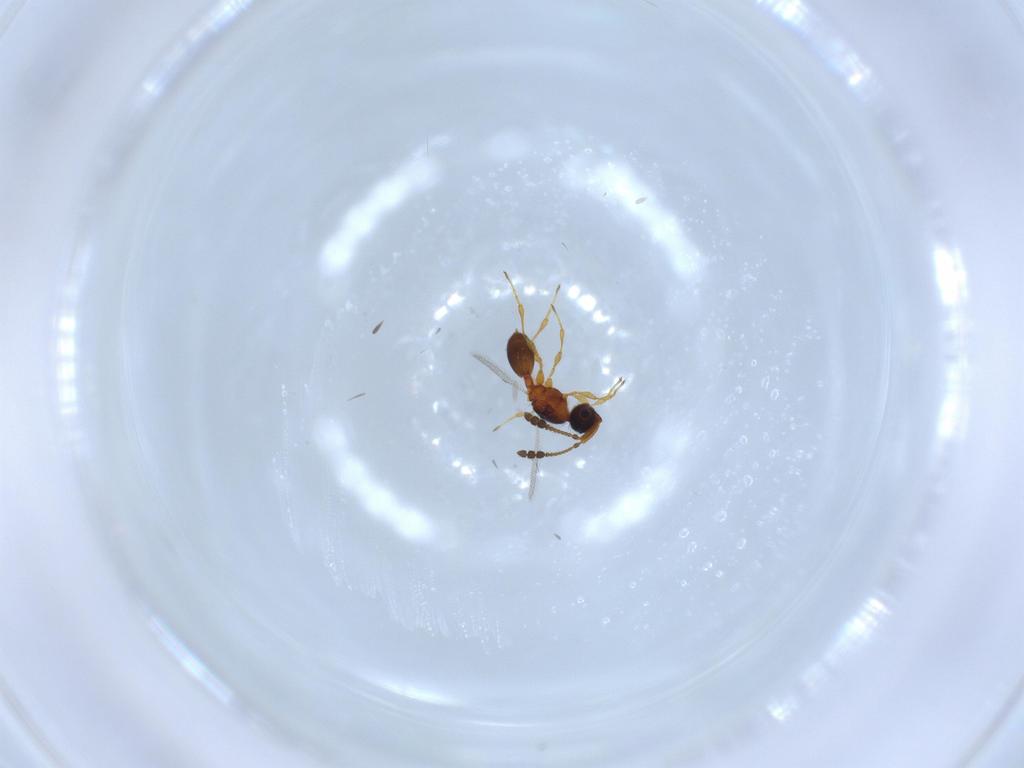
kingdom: Animalia
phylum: Arthropoda
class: Insecta
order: Hymenoptera
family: Diapriidae
